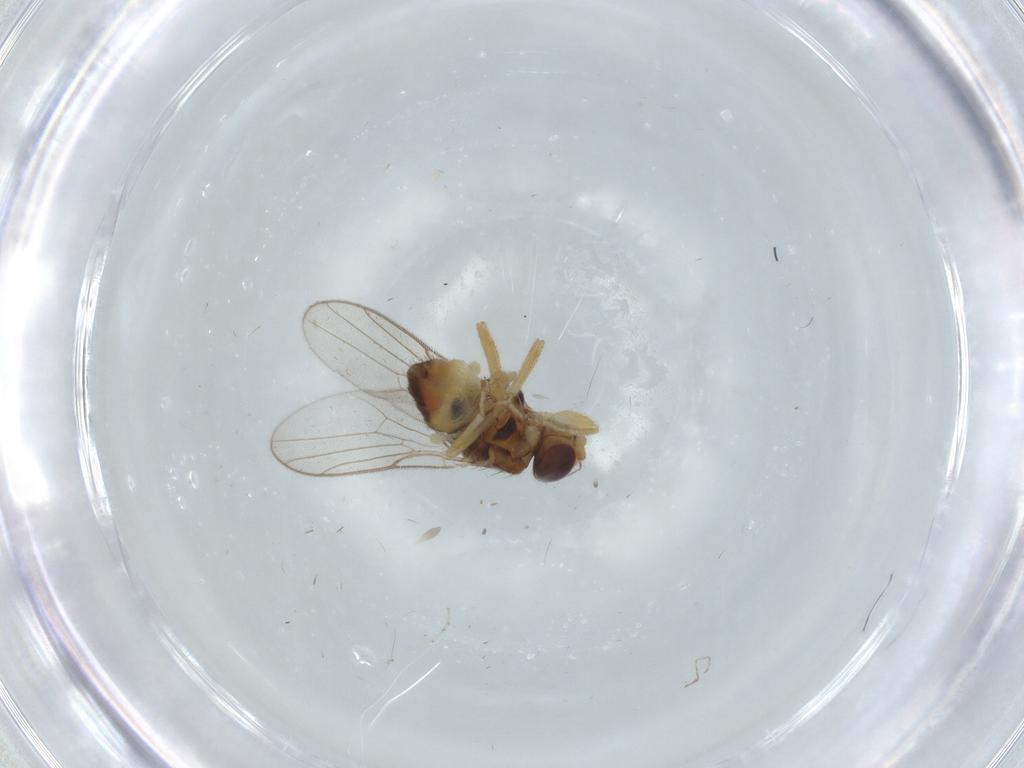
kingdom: Animalia
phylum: Arthropoda
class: Insecta
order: Diptera
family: Chloropidae
